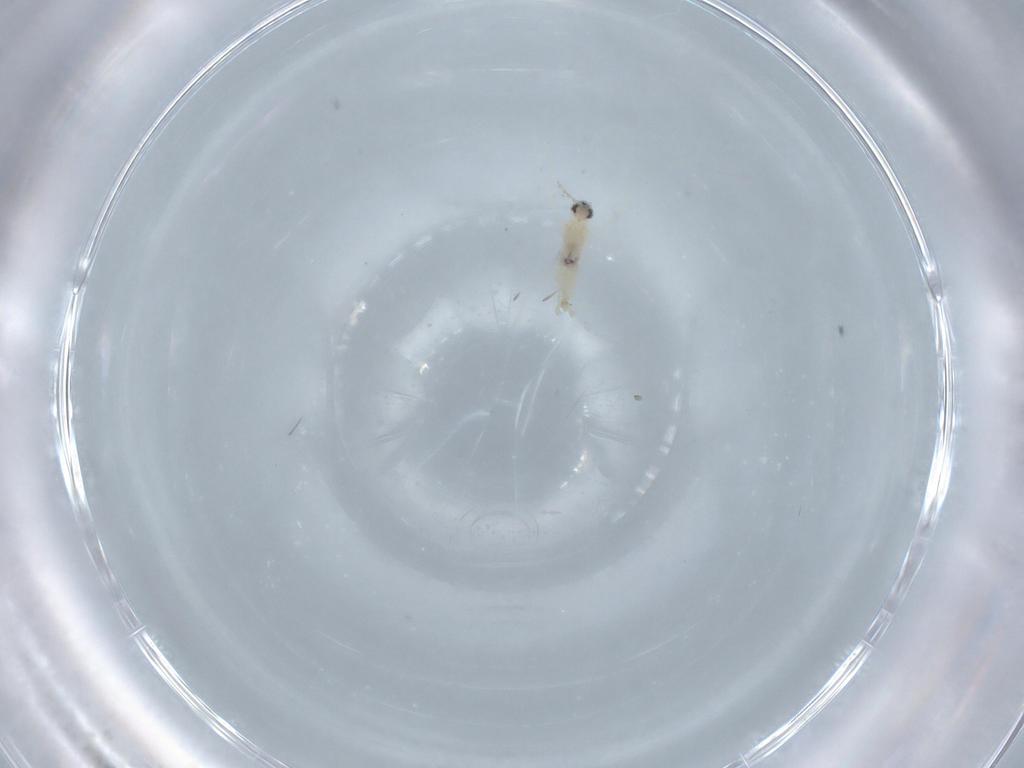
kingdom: Animalia
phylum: Arthropoda
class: Insecta
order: Diptera
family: Cecidomyiidae
